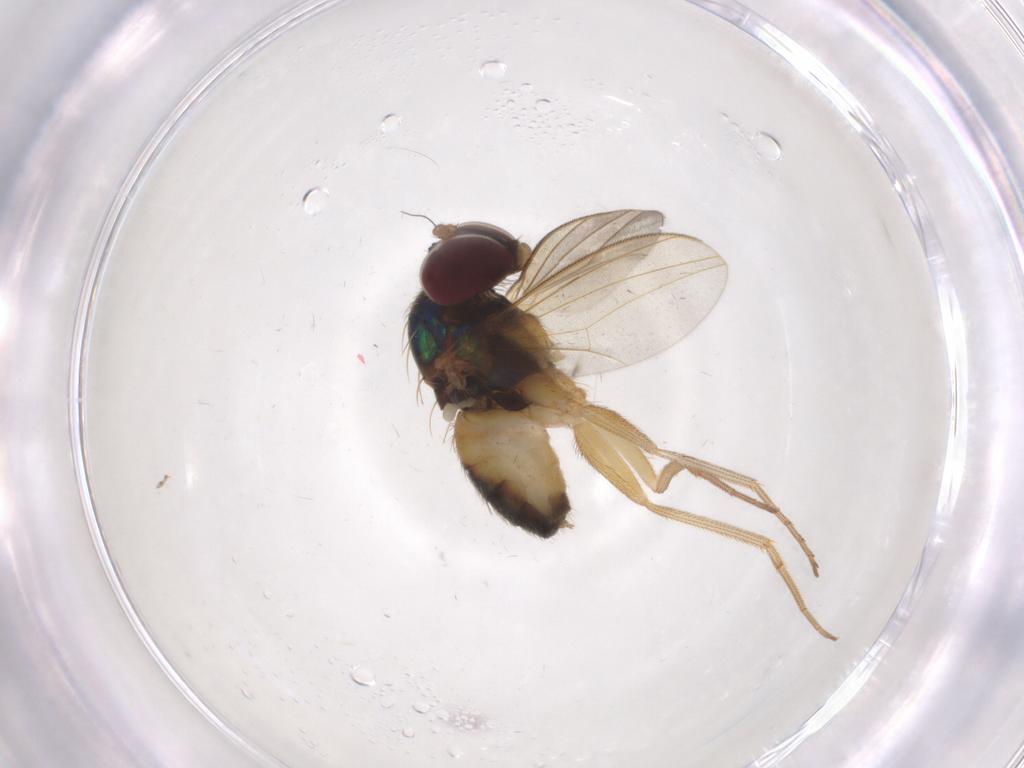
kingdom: Animalia
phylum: Arthropoda
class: Insecta
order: Diptera
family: Dolichopodidae
